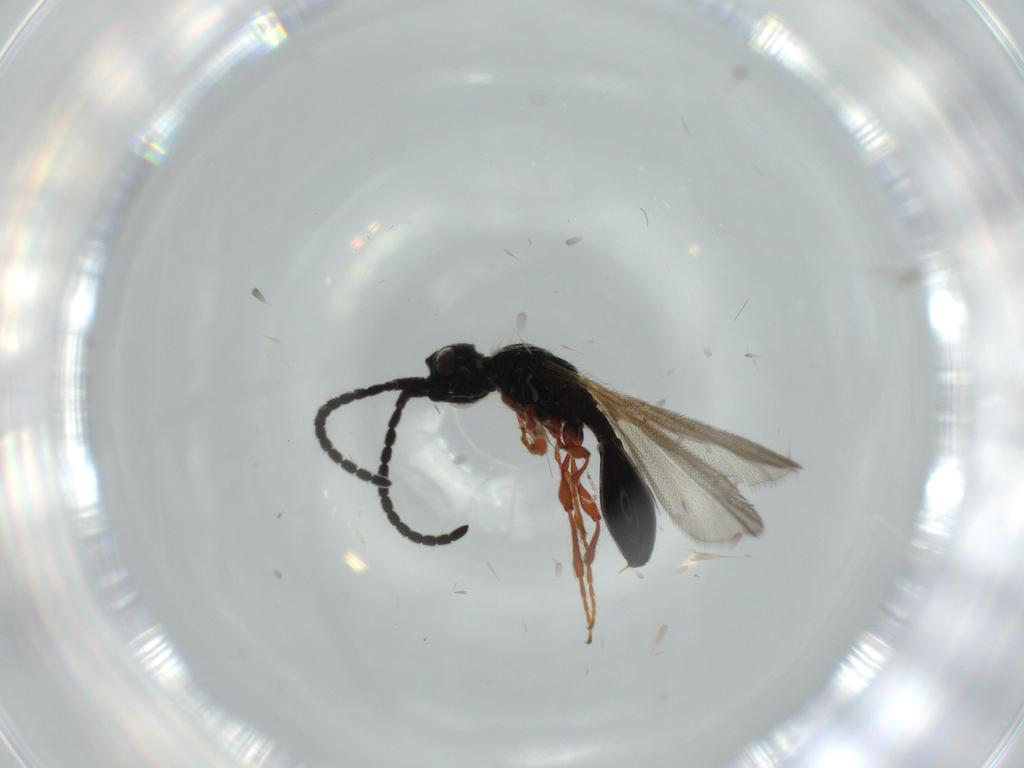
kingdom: Animalia
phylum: Arthropoda
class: Insecta
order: Hymenoptera
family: Diapriidae
